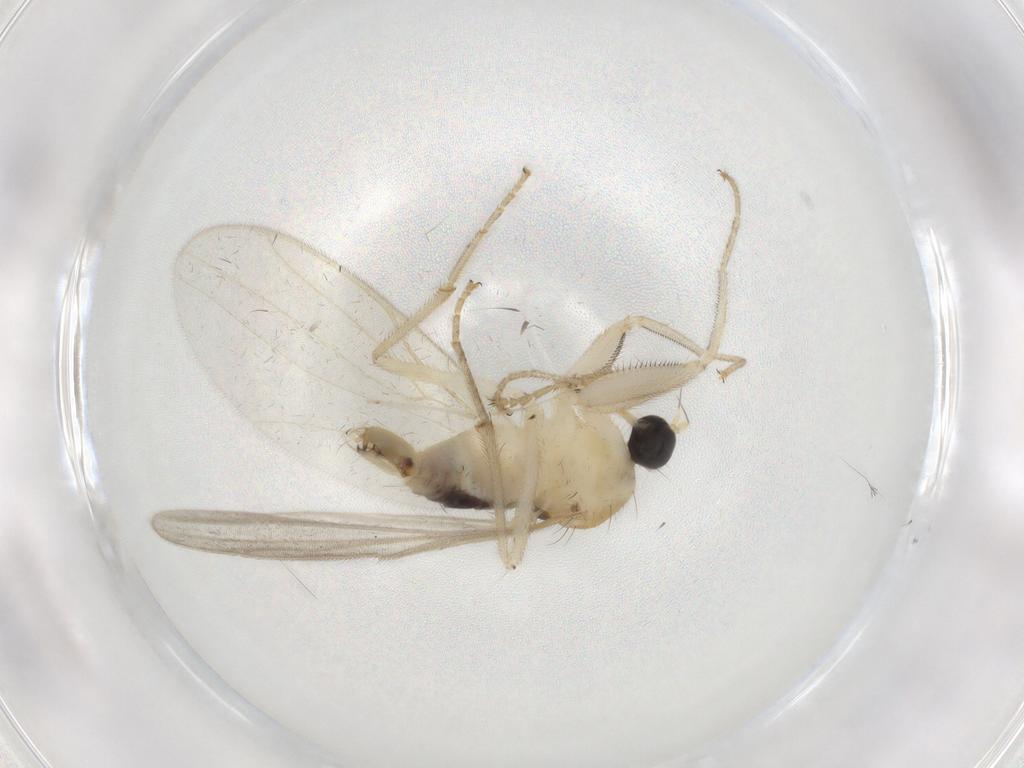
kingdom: Animalia
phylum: Arthropoda
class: Insecta
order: Diptera
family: Hybotidae
